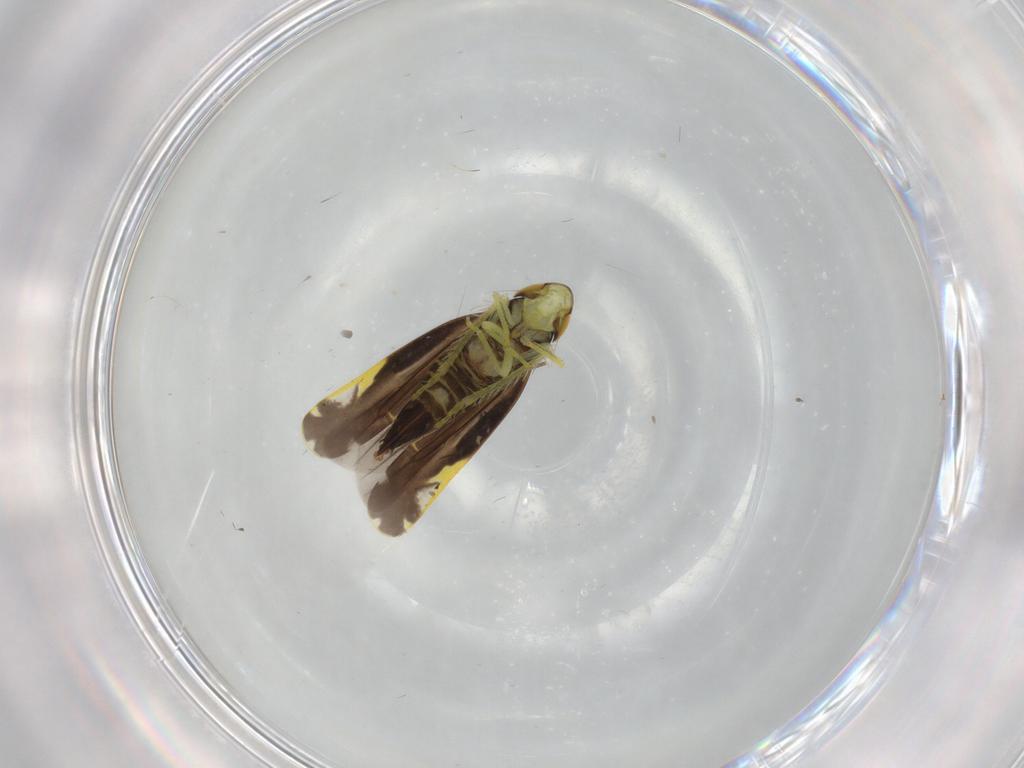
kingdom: Animalia
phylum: Arthropoda
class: Insecta
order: Hemiptera
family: Cicadellidae
